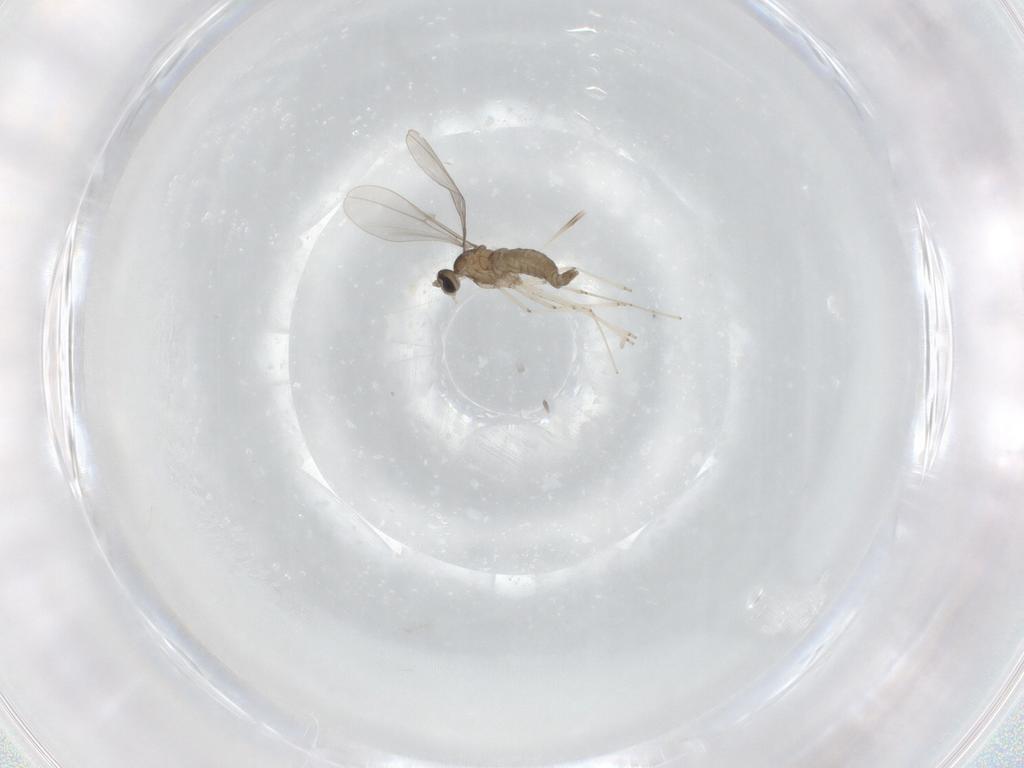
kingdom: Animalia
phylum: Arthropoda
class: Insecta
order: Diptera
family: Cecidomyiidae
